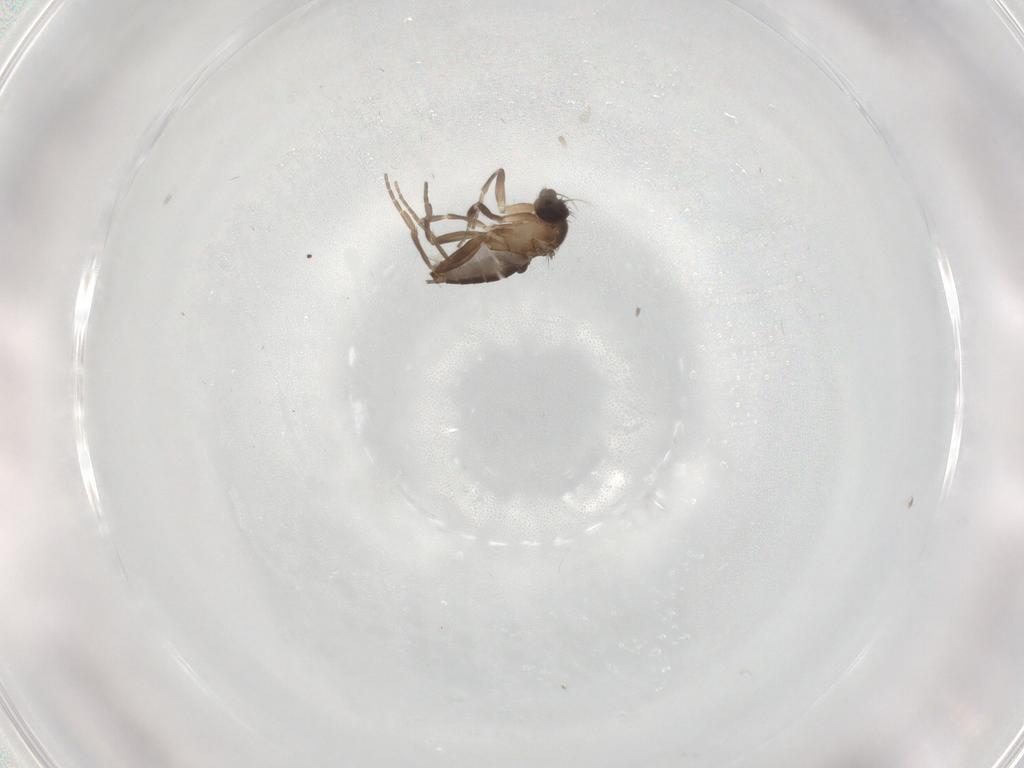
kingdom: Animalia
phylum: Arthropoda
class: Insecta
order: Diptera
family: Phoridae
